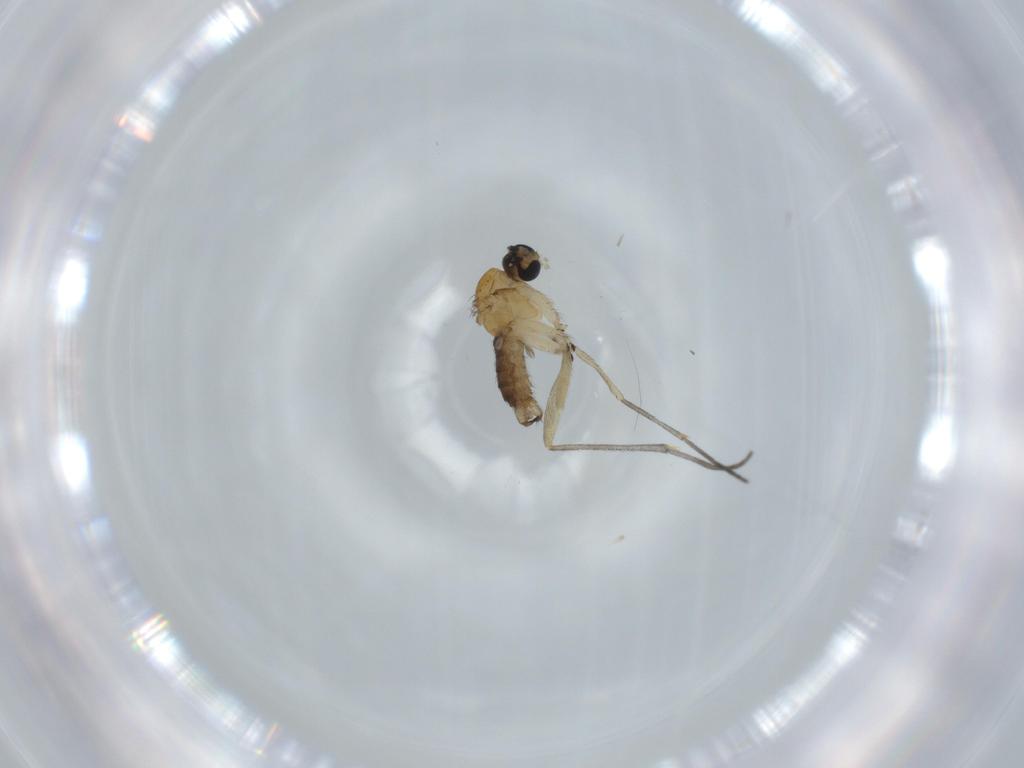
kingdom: Animalia
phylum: Arthropoda
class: Insecta
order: Diptera
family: Sciaridae
